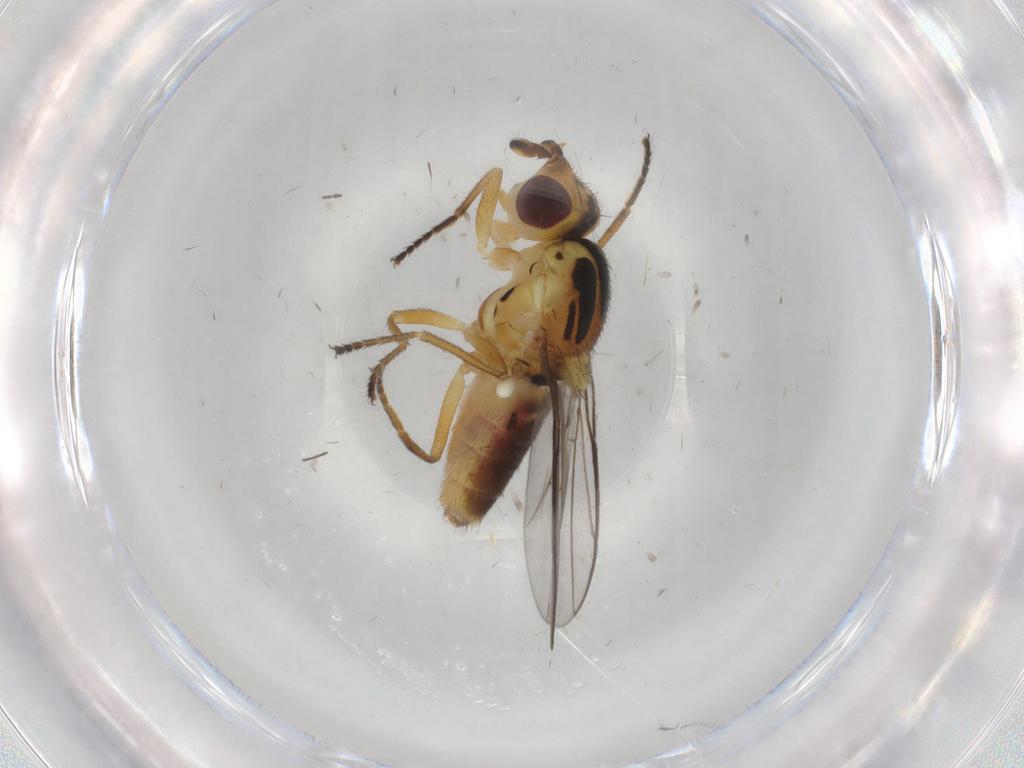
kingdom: Animalia
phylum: Arthropoda
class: Insecta
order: Diptera
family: Chloropidae
